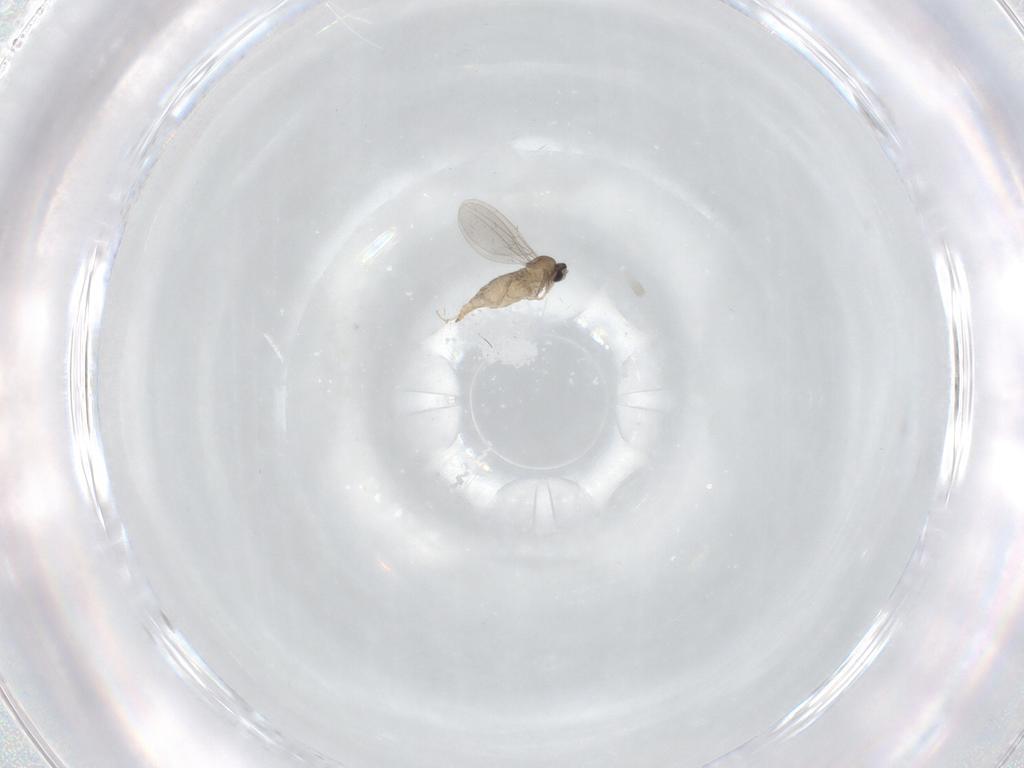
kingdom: Animalia
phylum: Arthropoda
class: Insecta
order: Diptera
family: Cecidomyiidae
